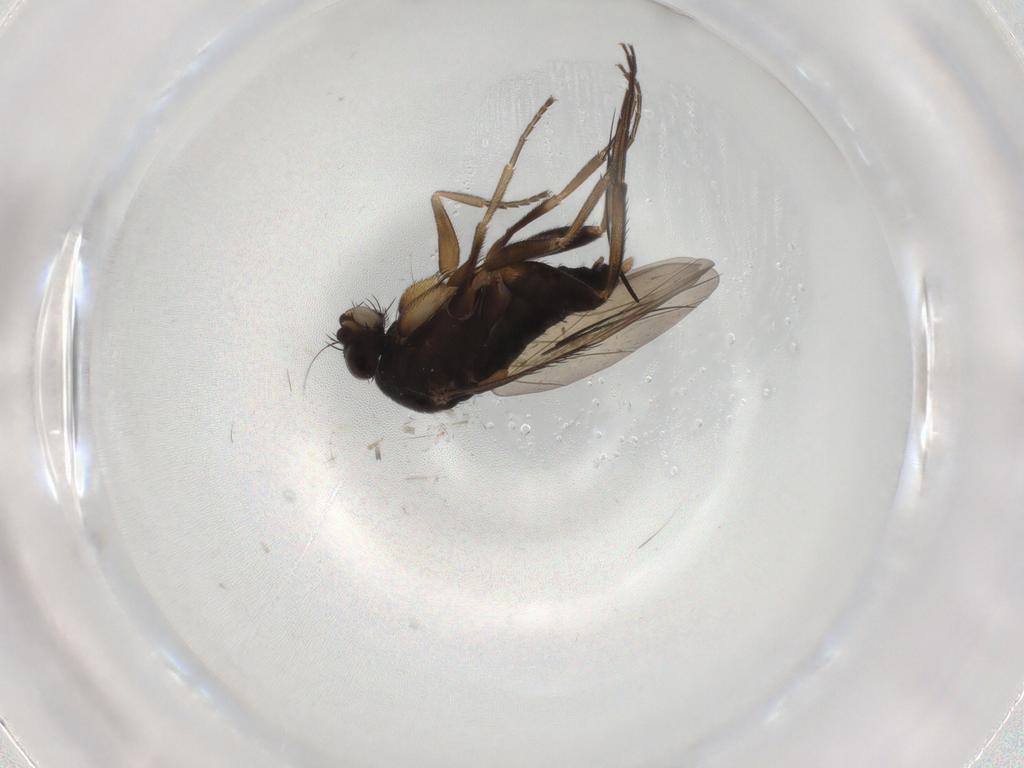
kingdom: Animalia
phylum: Arthropoda
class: Insecta
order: Diptera
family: Phoridae
